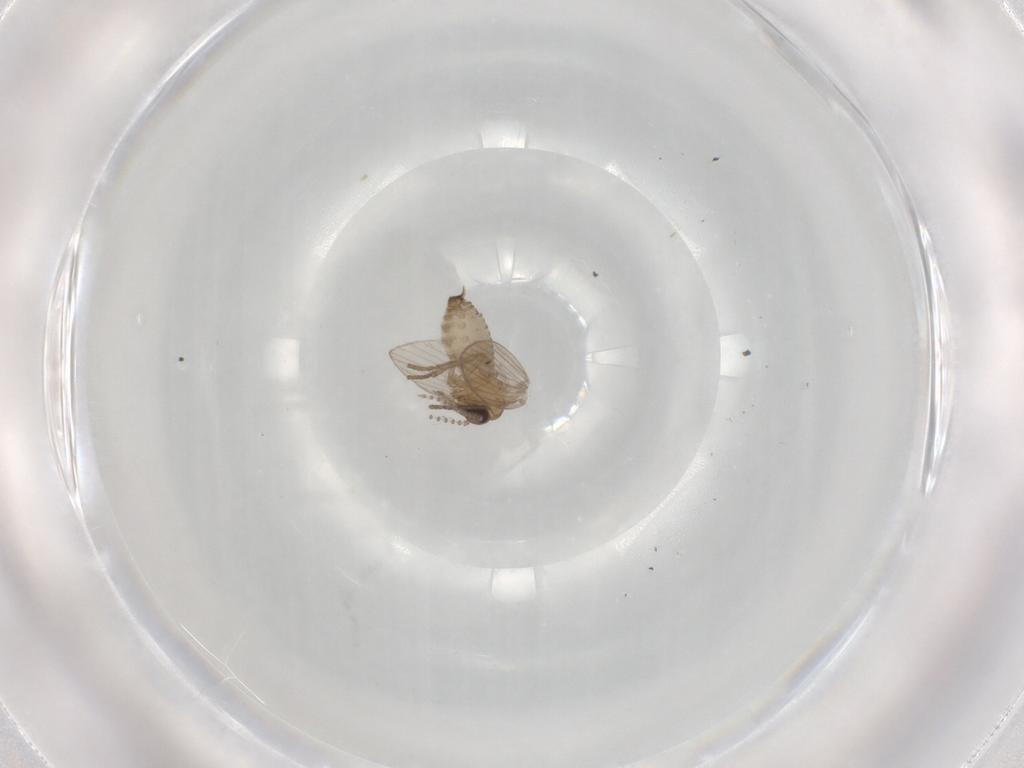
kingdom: Animalia
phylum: Arthropoda
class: Insecta
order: Diptera
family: Psychodidae
